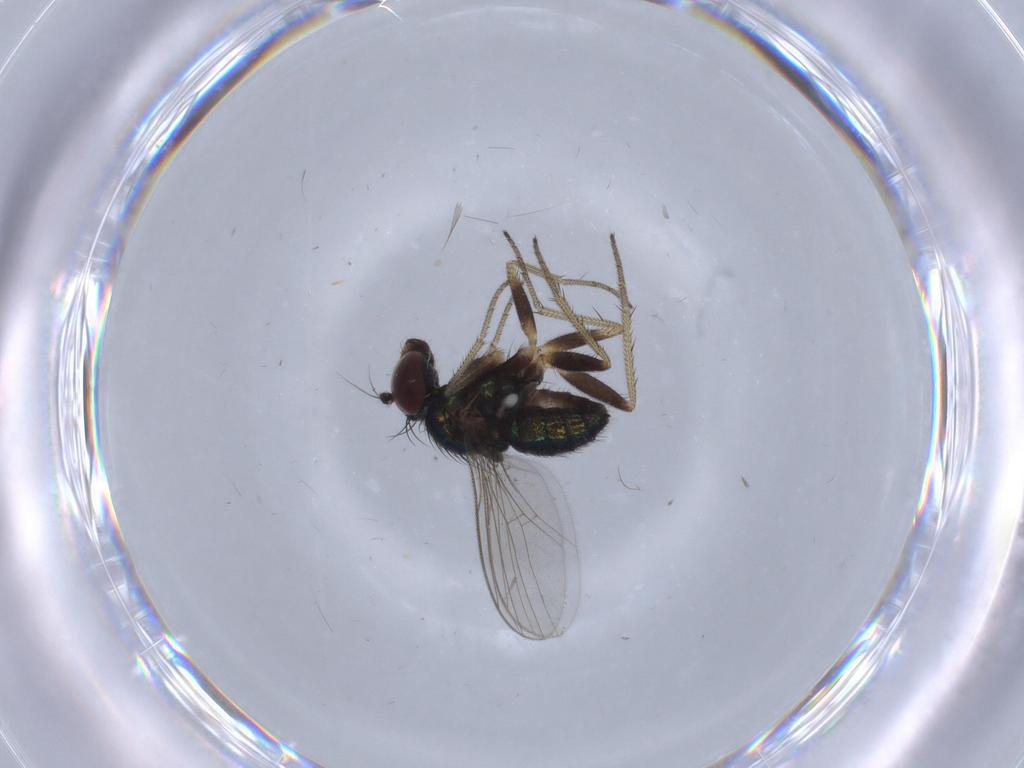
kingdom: Animalia
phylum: Arthropoda
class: Insecta
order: Diptera
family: Dolichopodidae
